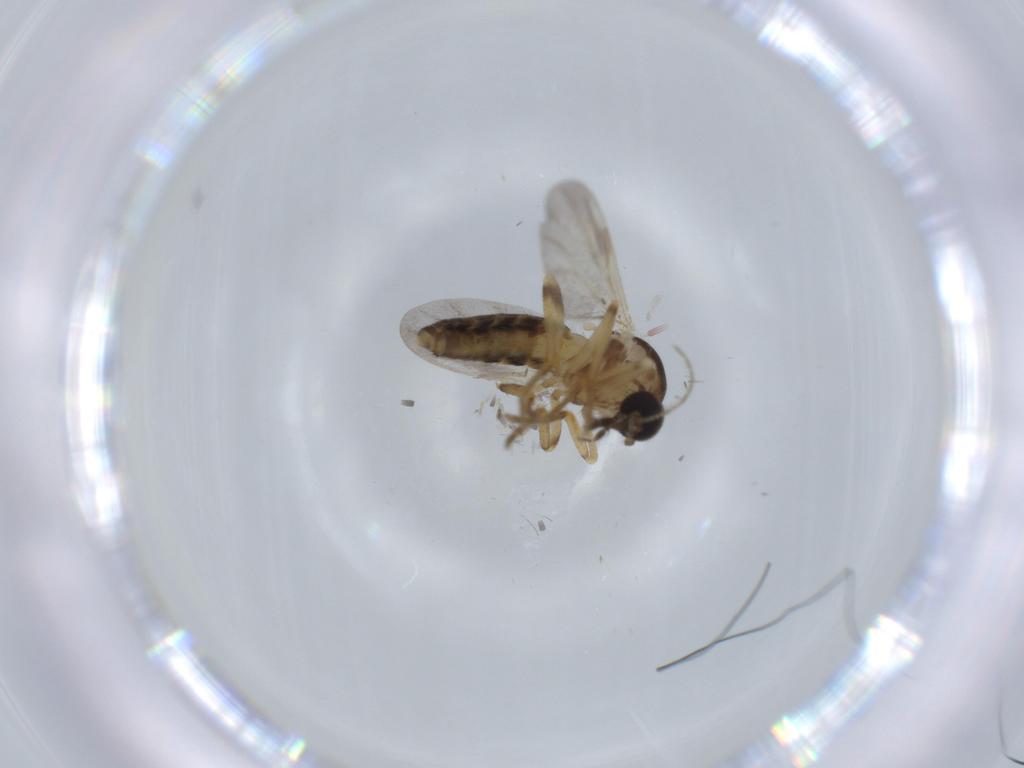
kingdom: Animalia
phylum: Arthropoda
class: Insecta
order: Diptera
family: Ceratopogonidae
